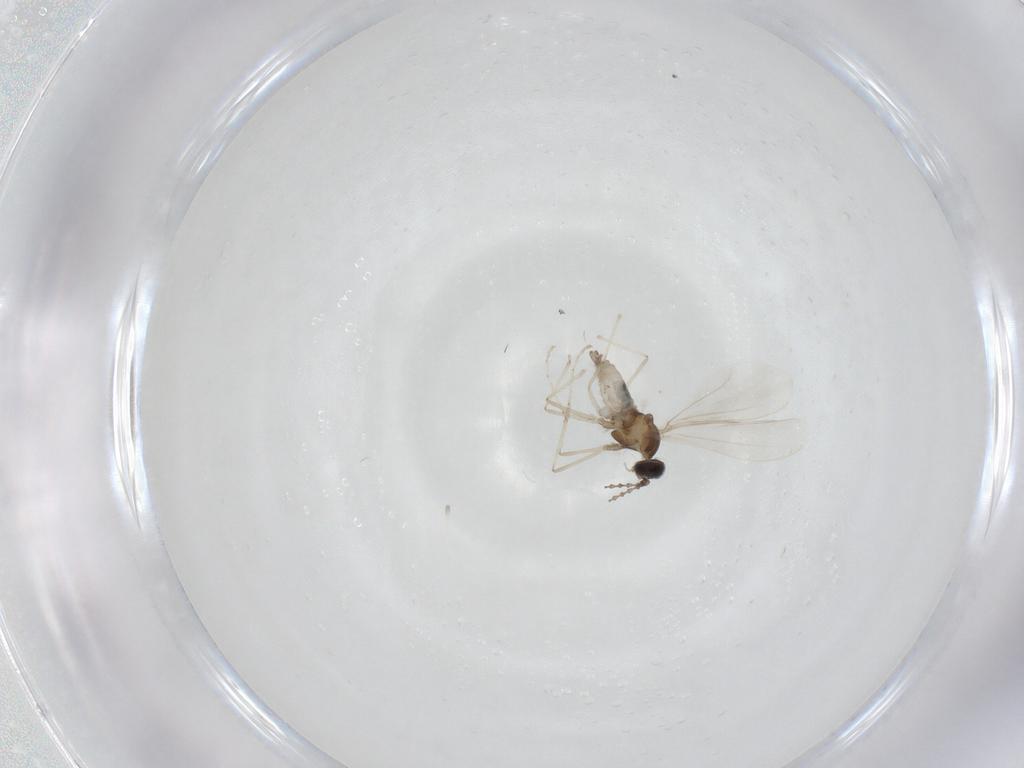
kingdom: Animalia
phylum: Arthropoda
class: Insecta
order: Diptera
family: Cecidomyiidae
